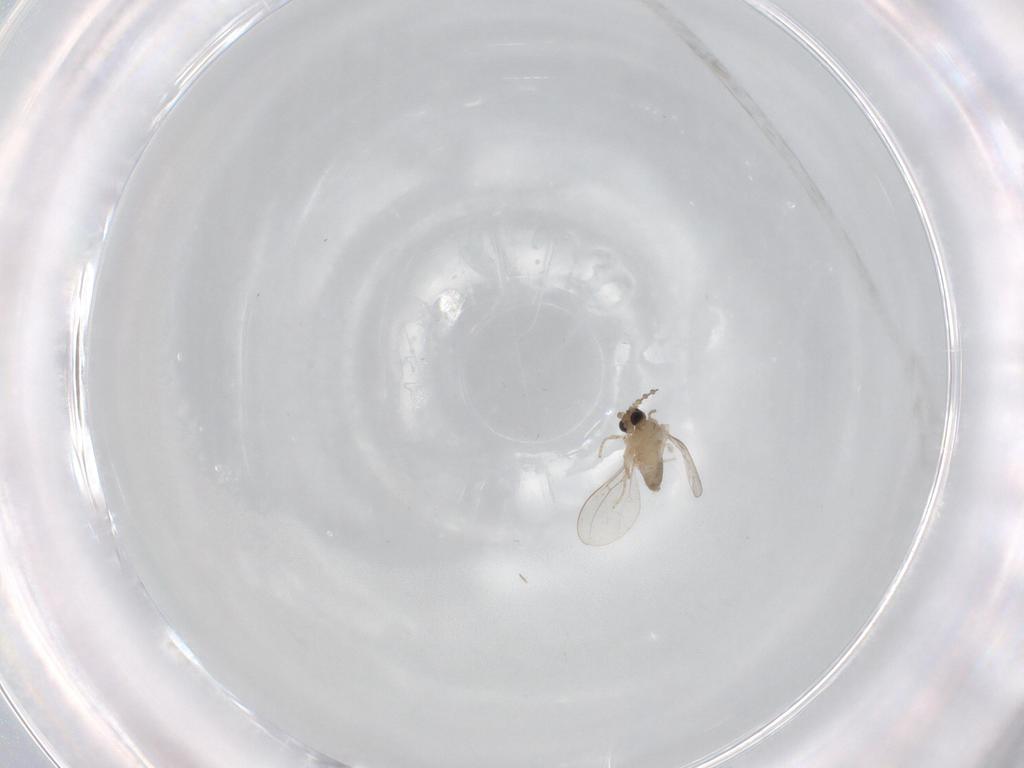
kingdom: Animalia
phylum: Arthropoda
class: Insecta
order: Diptera
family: Cecidomyiidae
